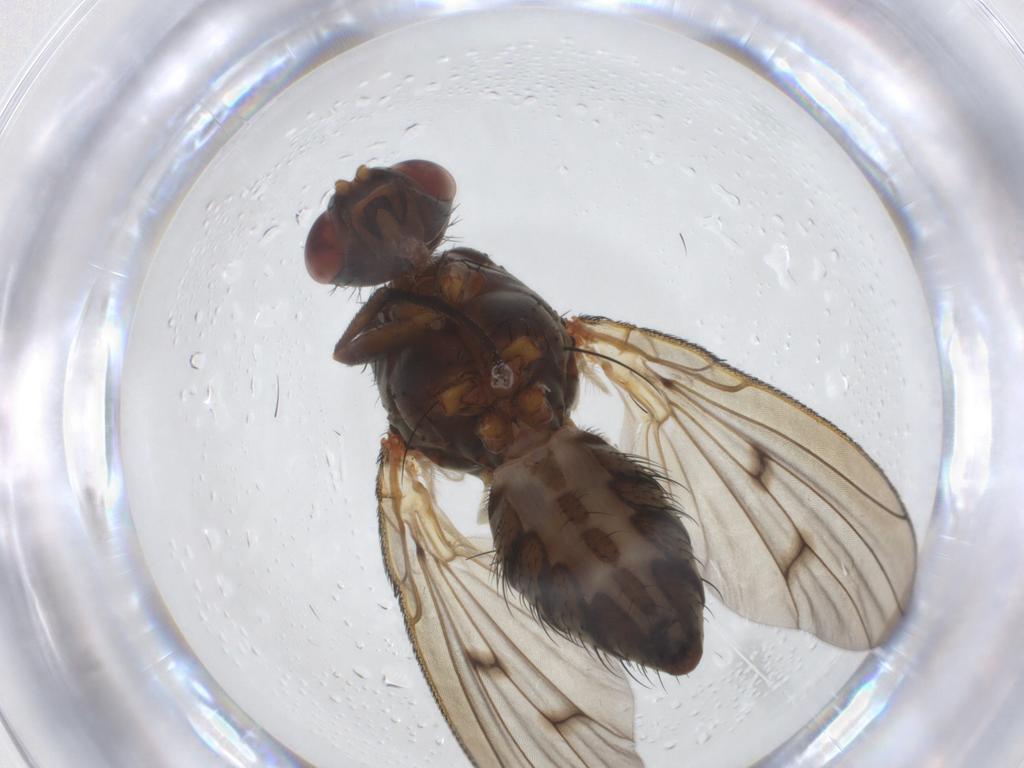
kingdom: Animalia
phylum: Arthropoda
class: Insecta
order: Diptera
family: Anthomyiidae
